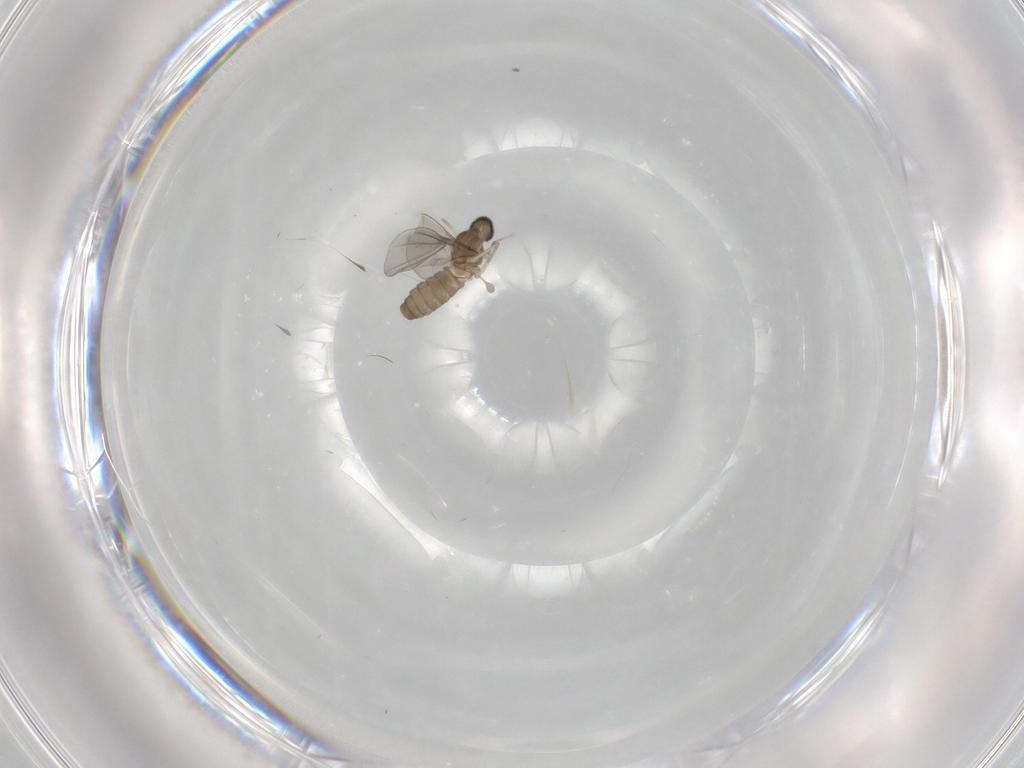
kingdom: Animalia
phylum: Arthropoda
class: Insecta
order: Diptera
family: Cecidomyiidae
